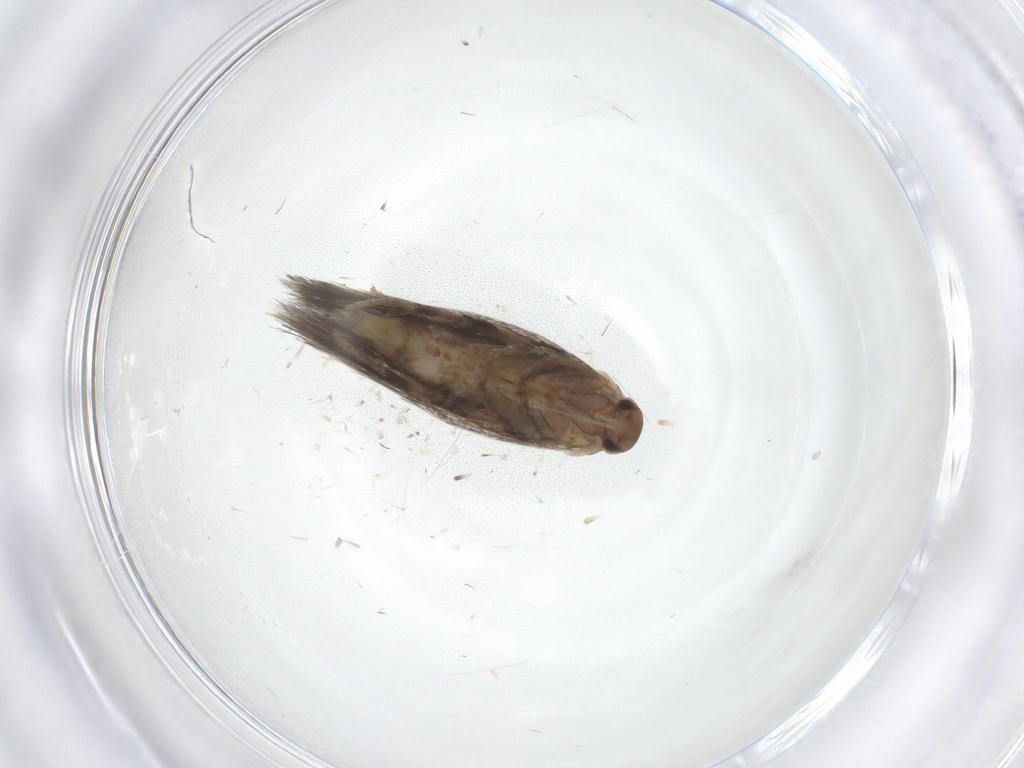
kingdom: Animalia
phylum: Arthropoda
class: Insecta
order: Lepidoptera
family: Elachistidae
